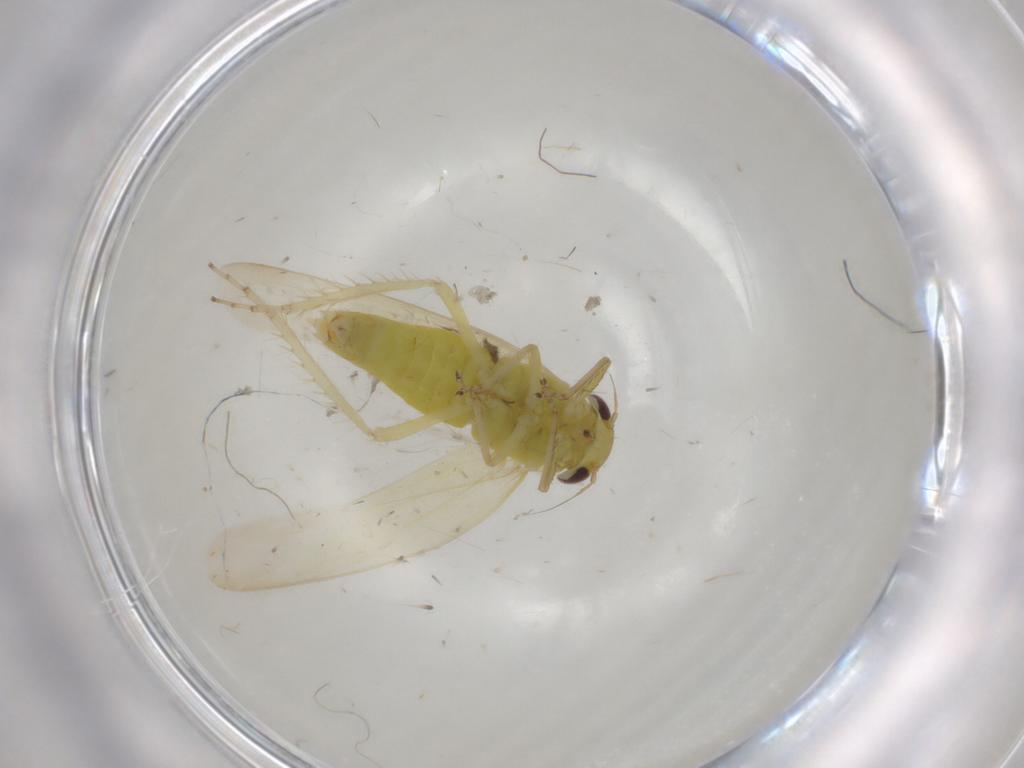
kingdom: Animalia
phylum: Arthropoda
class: Insecta
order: Hemiptera
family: Cicadellidae
